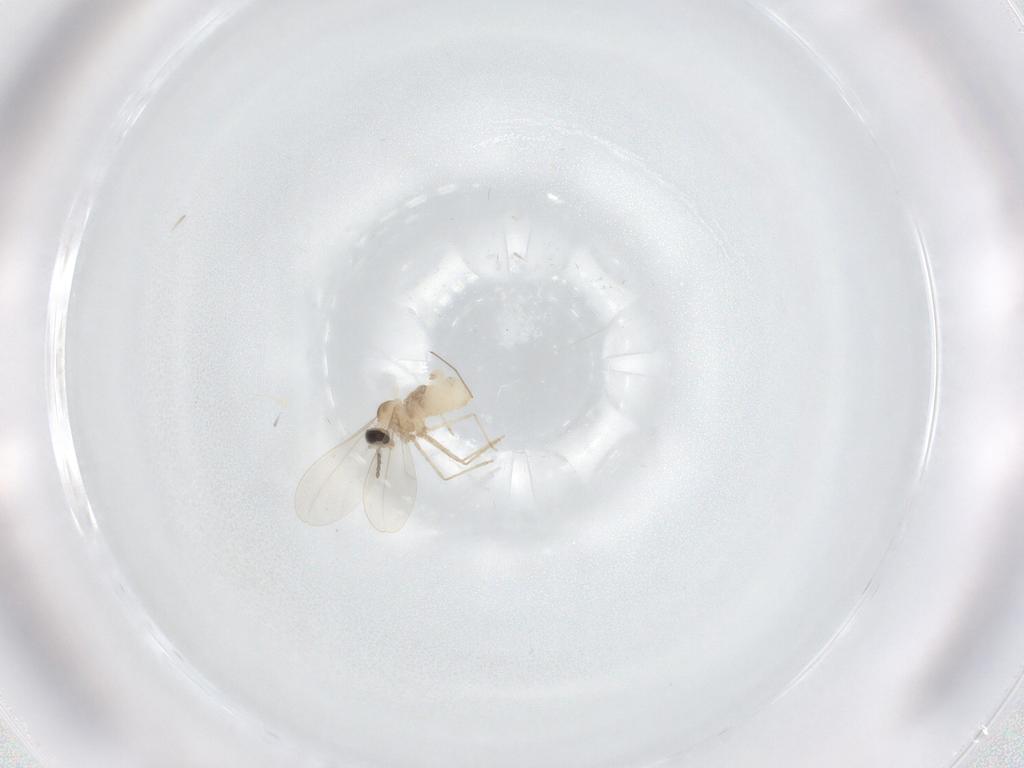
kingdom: Animalia
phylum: Arthropoda
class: Insecta
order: Diptera
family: Cecidomyiidae
